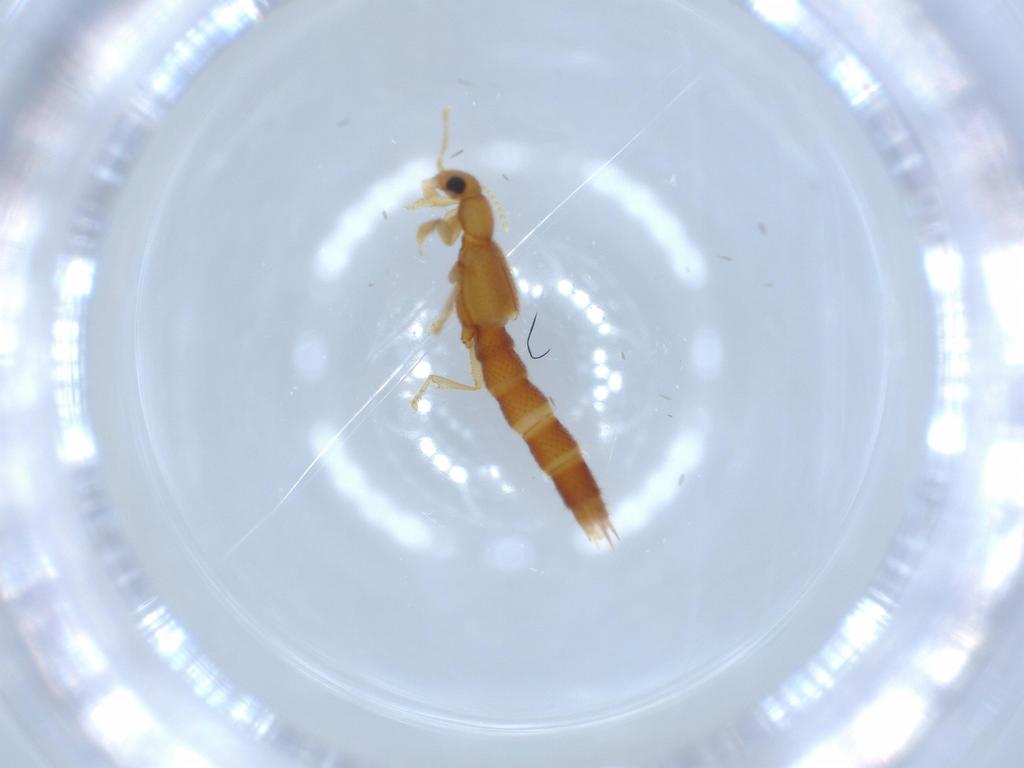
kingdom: Animalia
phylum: Arthropoda
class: Insecta
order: Coleoptera
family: Staphylinidae
